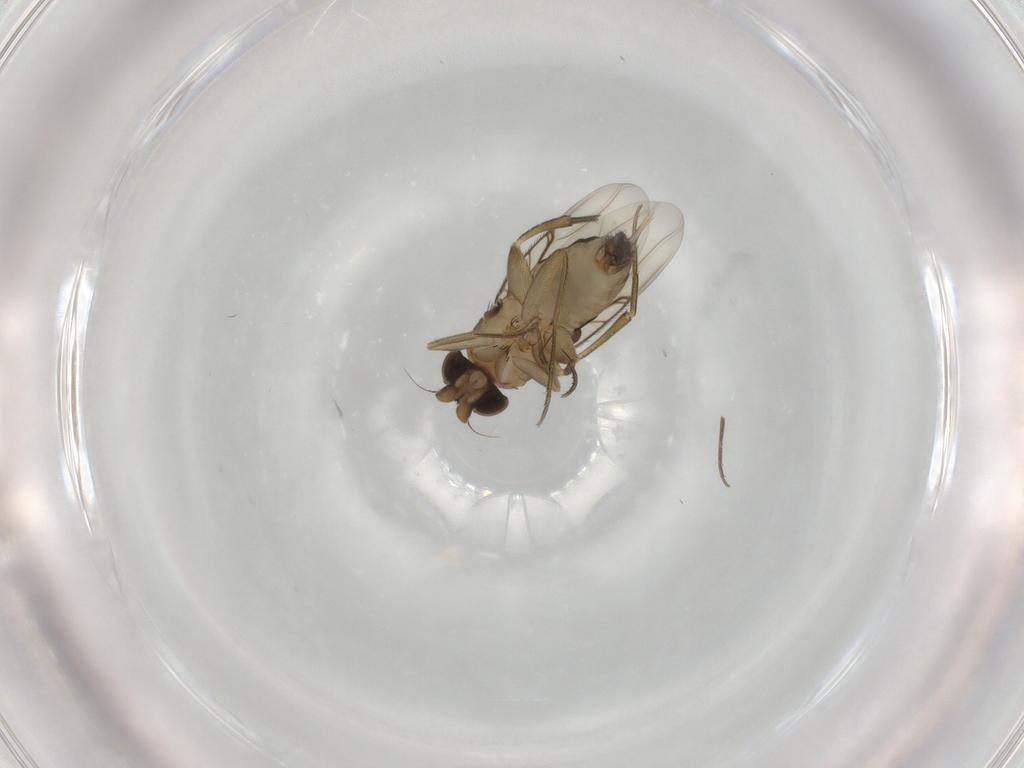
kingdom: Animalia
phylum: Arthropoda
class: Insecta
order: Diptera
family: Phoridae
